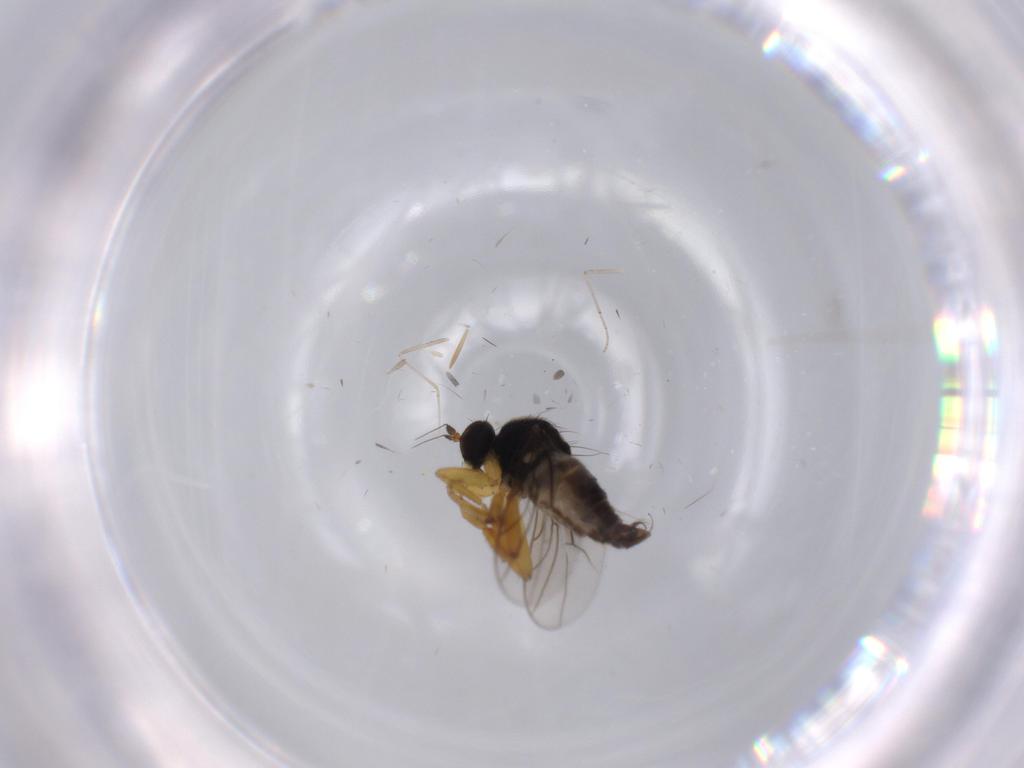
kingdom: Animalia
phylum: Arthropoda
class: Insecta
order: Diptera
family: Hybotidae
